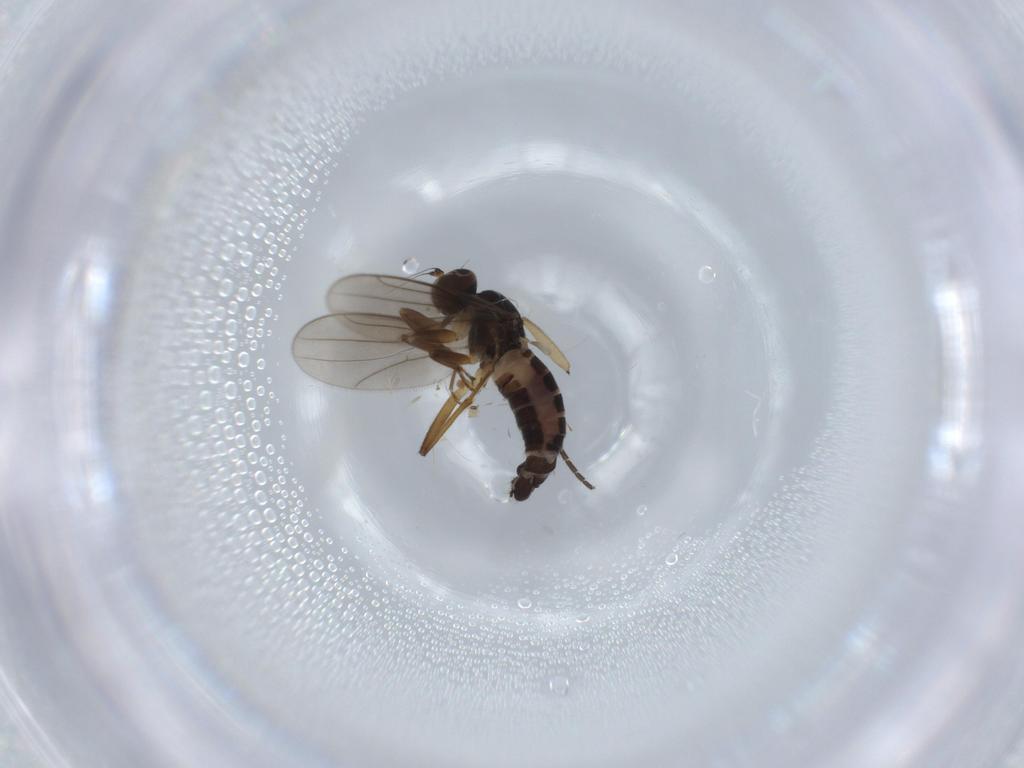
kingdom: Animalia
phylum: Arthropoda
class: Insecta
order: Diptera
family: Hybotidae
